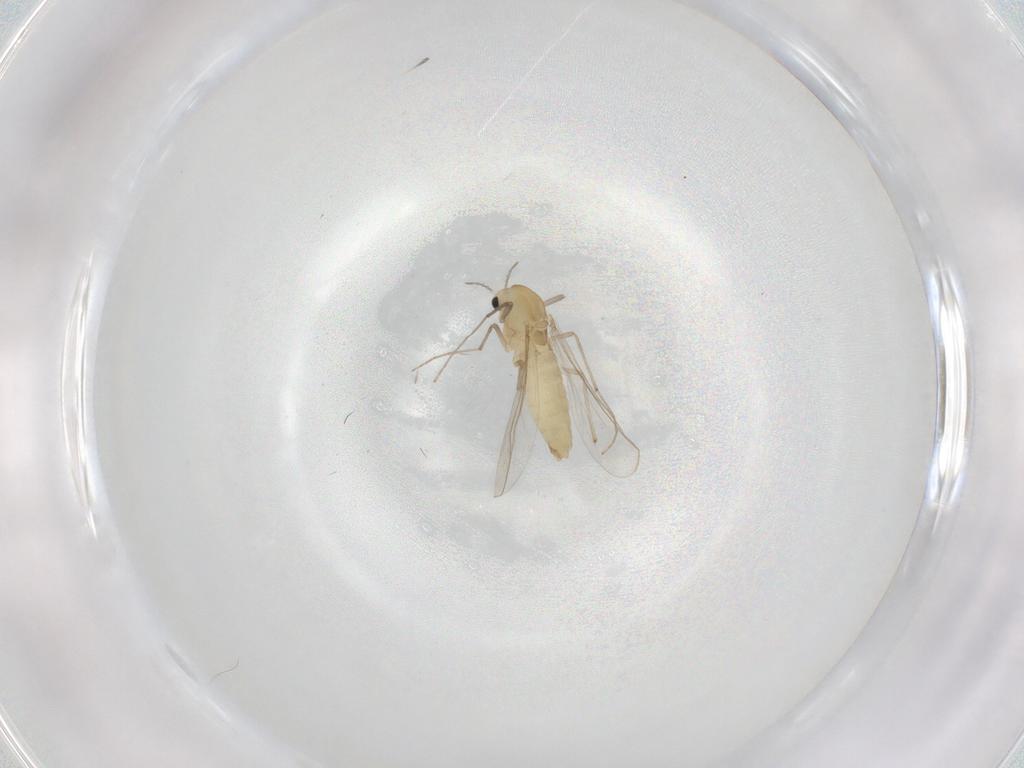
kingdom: Animalia
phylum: Arthropoda
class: Insecta
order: Diptera
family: Chironomidae
